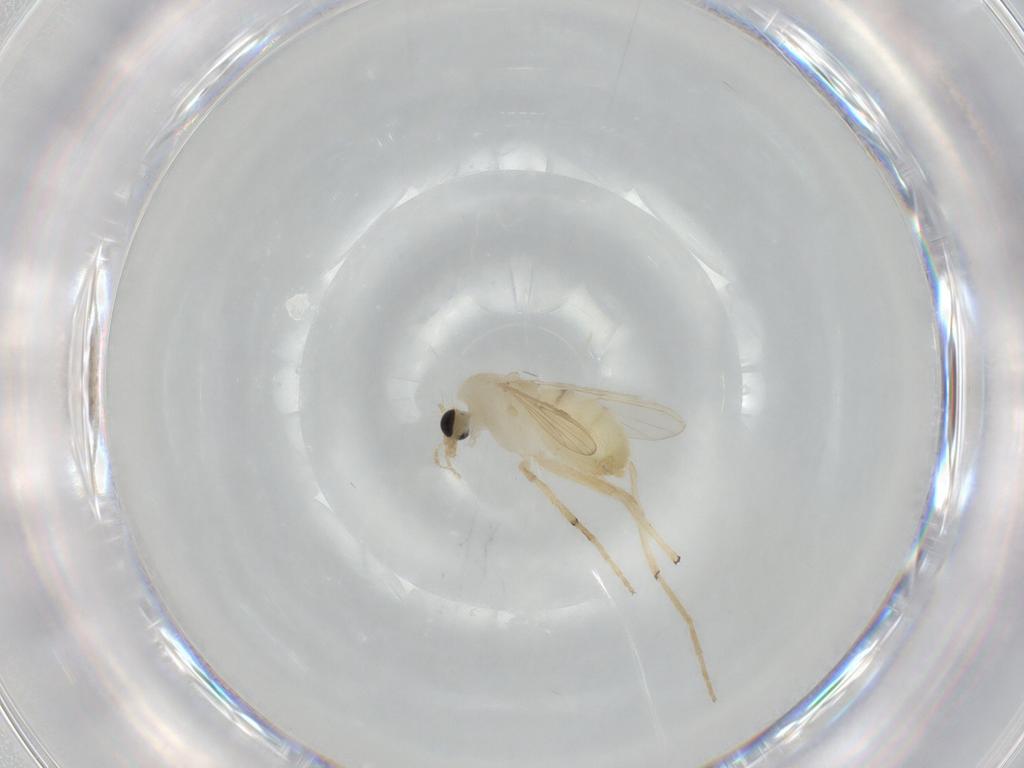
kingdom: Animalia
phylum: Arthropoda
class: Insecta
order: Diptera
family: Chironomidae
